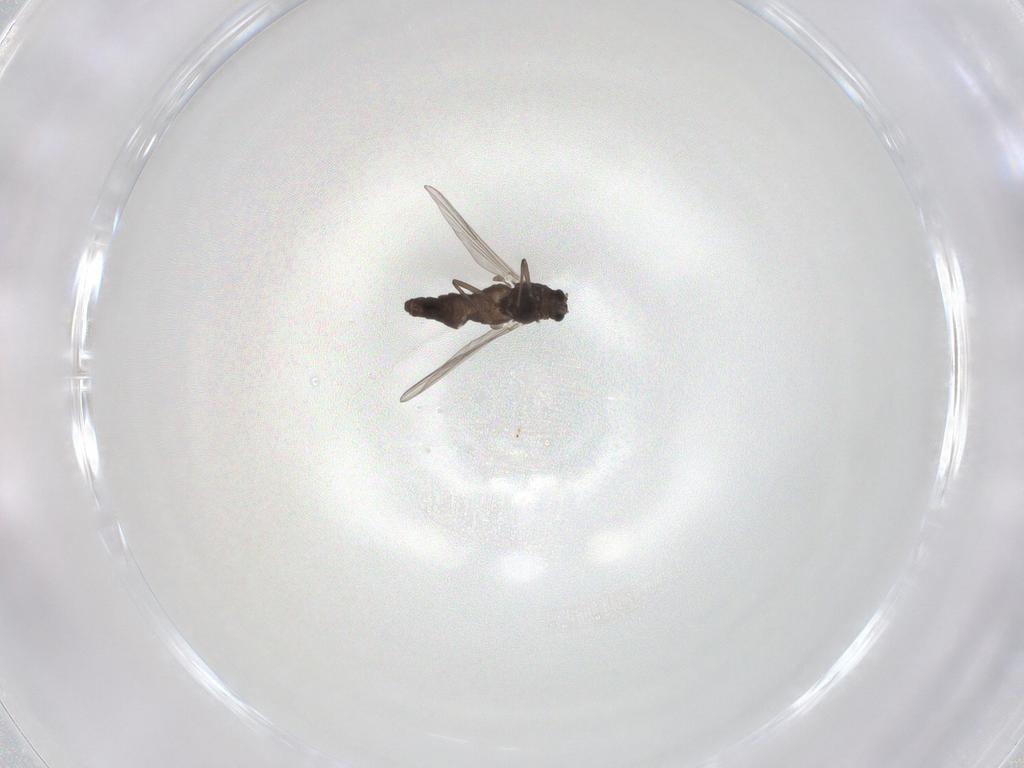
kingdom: Animalia
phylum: Arthropoda
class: Insecta
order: Diptera
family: Chironomidae
